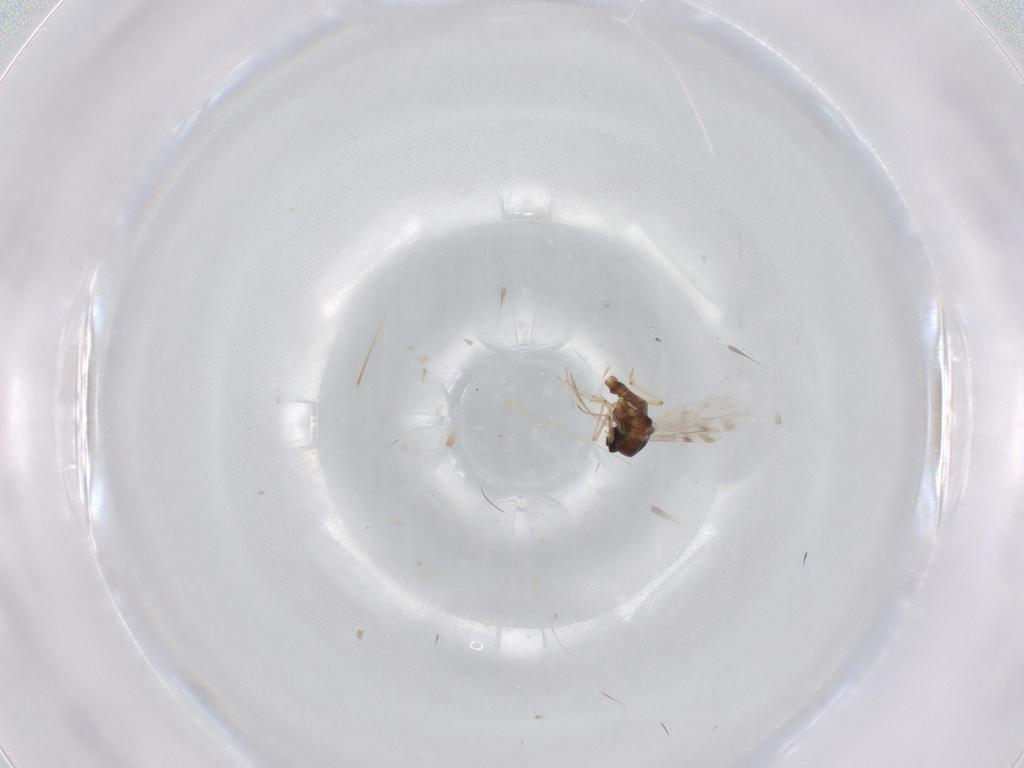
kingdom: Animalia
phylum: Arthropoda
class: Insecta
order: Diptera
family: Ceratopogonidae
